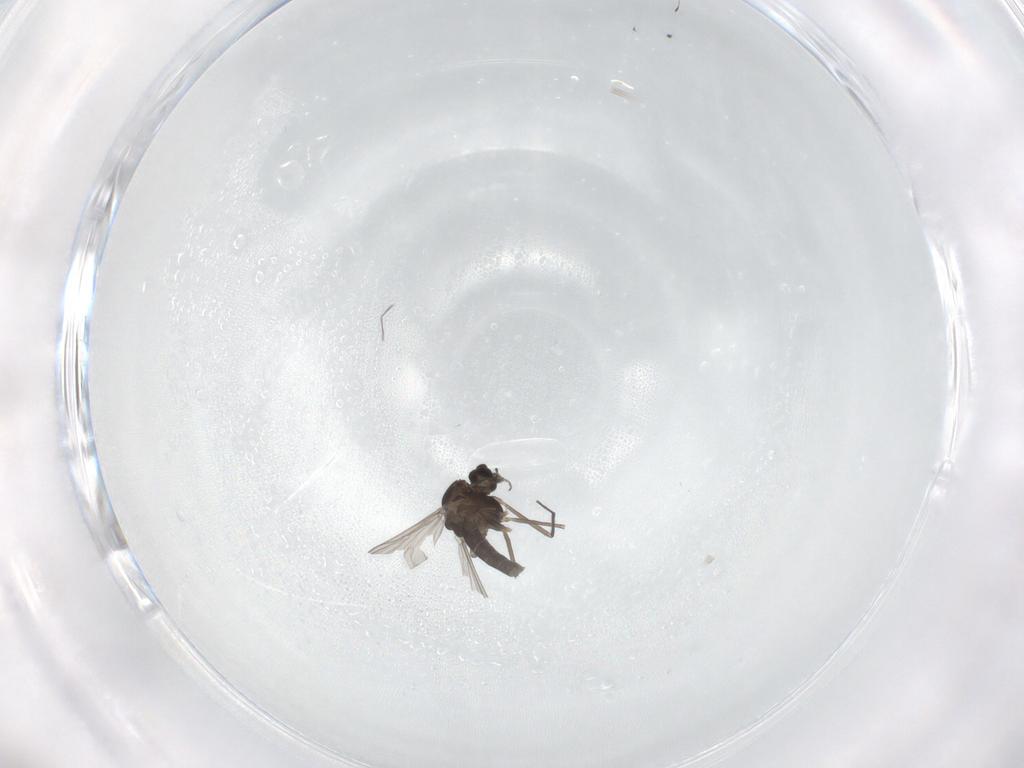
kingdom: Animalia
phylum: Arthropoda
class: Insecta
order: Diptera
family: Chironomidae
